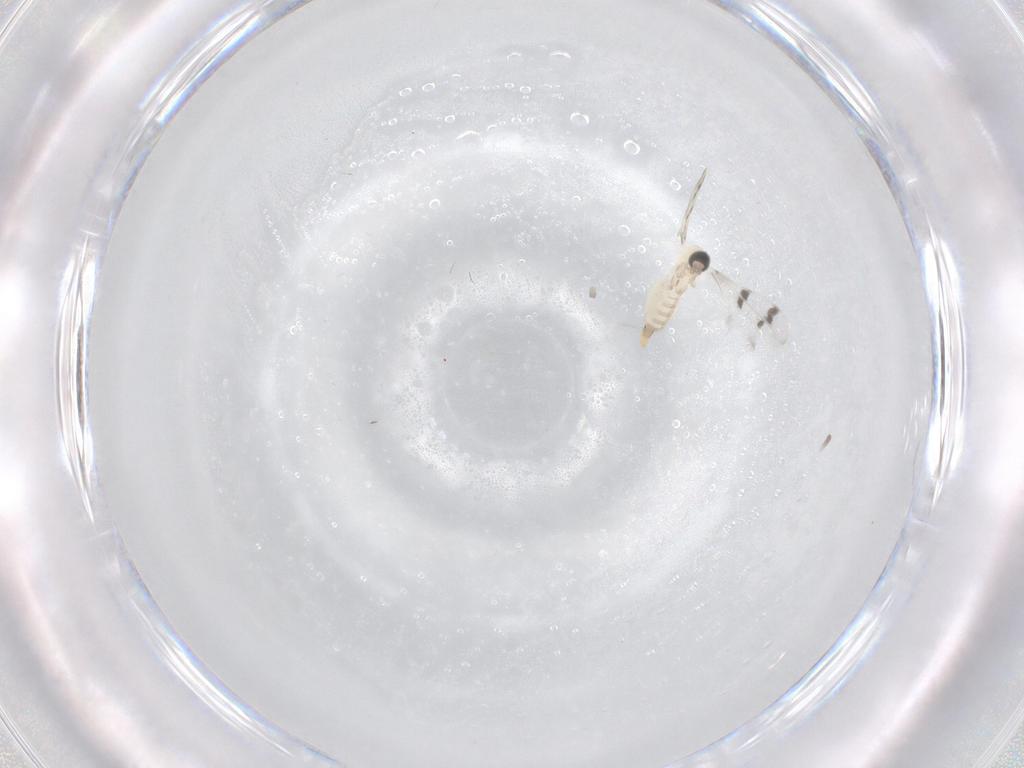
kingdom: Animalia
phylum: Arthropoda
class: Insecta
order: Diptera
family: Cecidomyiidae
